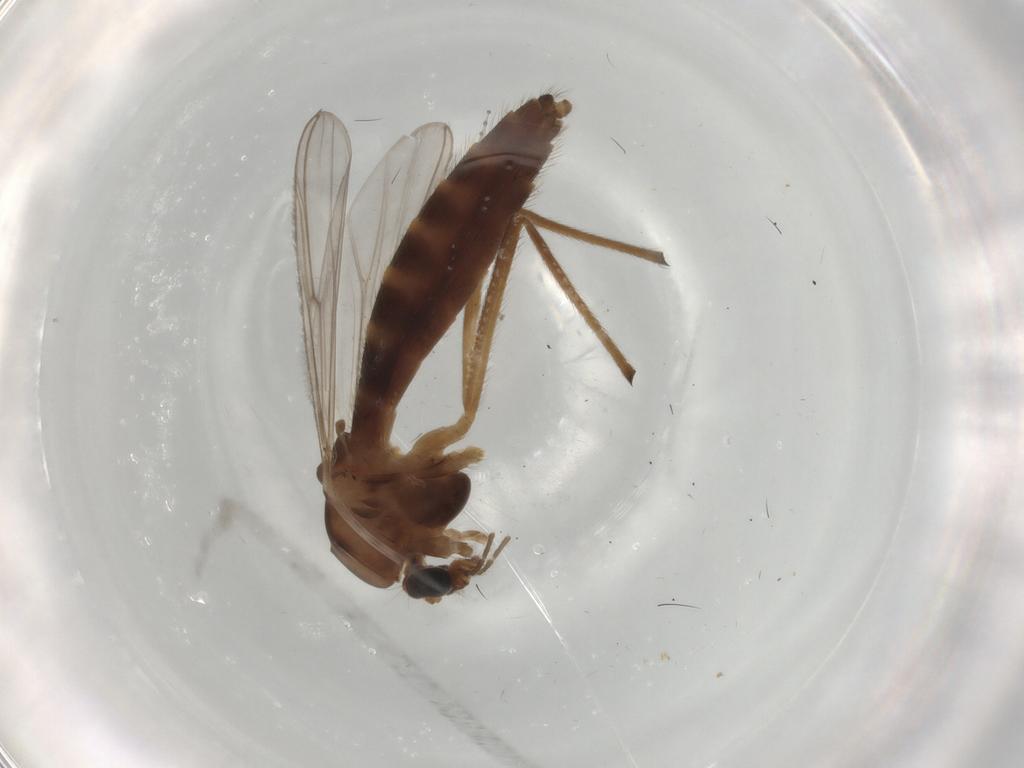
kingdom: Animalia
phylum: Arthropoda
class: Insecta
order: Diptera
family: Chironomidae
